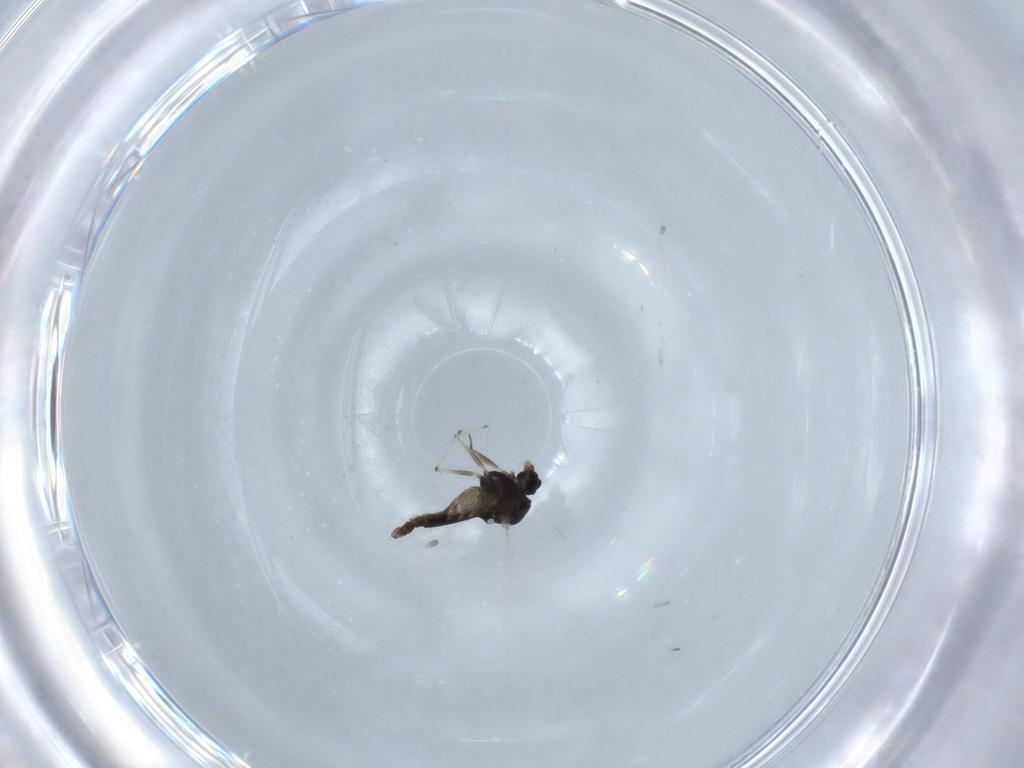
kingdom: Animalia
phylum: Arthropoda
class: Insecta
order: Diptera
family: Chironomidae
